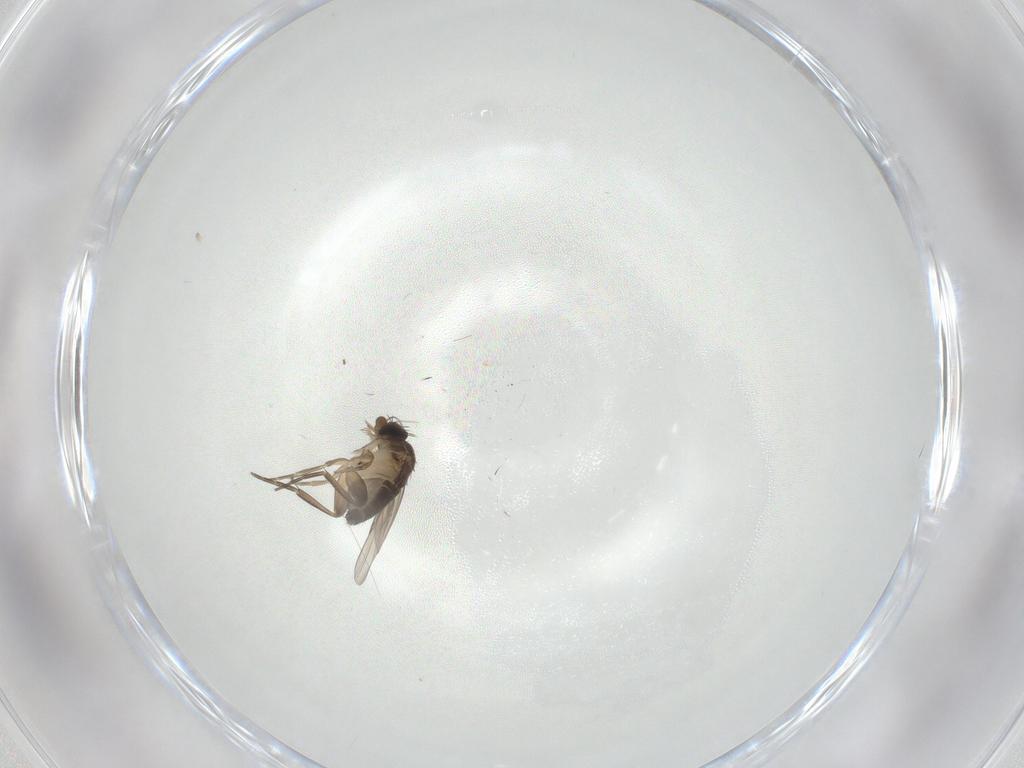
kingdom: Animalia
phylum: Arthropoda
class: Insecta
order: Diptera
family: Phoridae
